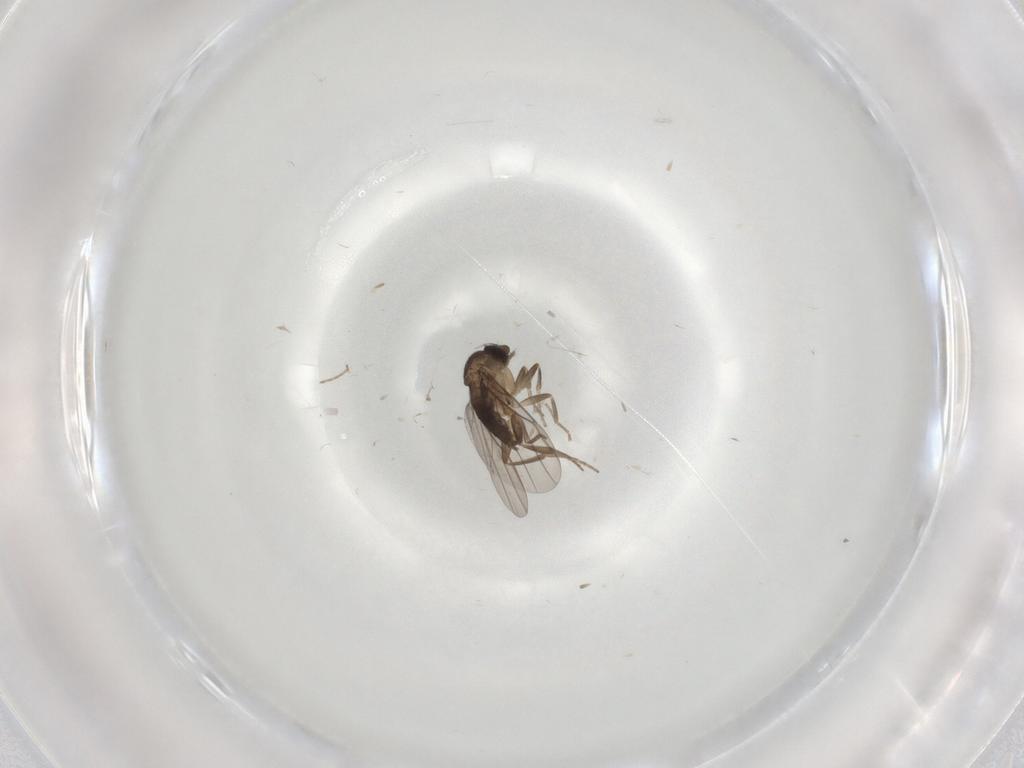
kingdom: Animalia
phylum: Arthropoda
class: Insecta
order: Diptera
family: Phoridae
